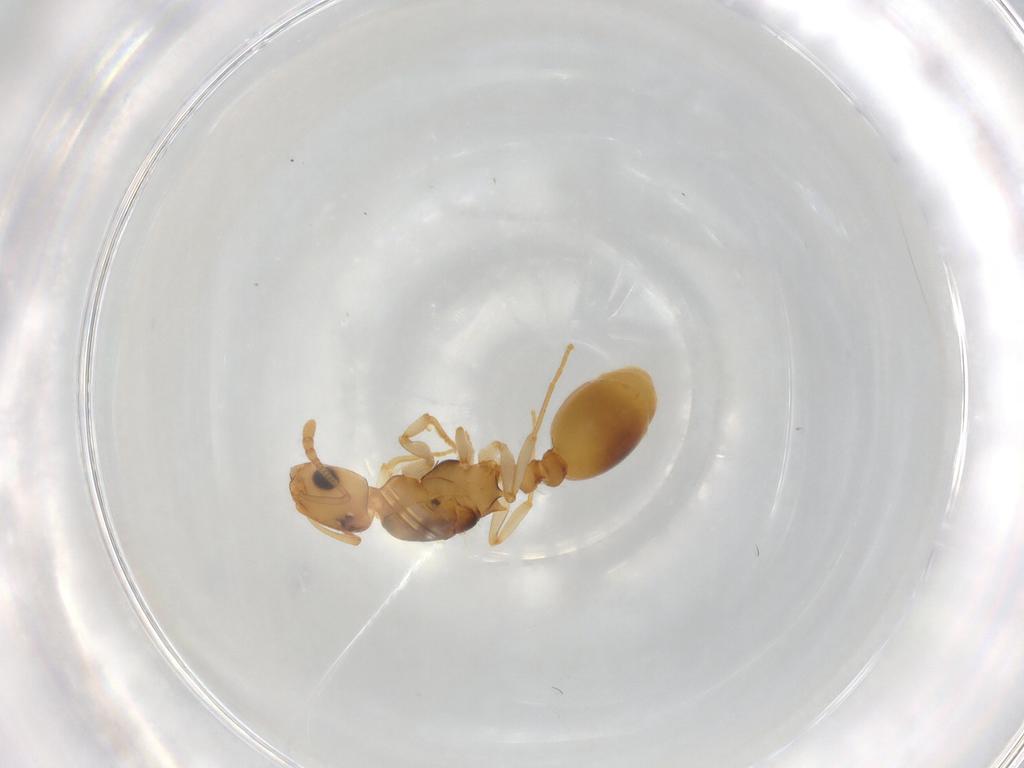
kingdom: Animalia
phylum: Arthropoda
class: Insecta
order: Hymenoptera
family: Formicidae
